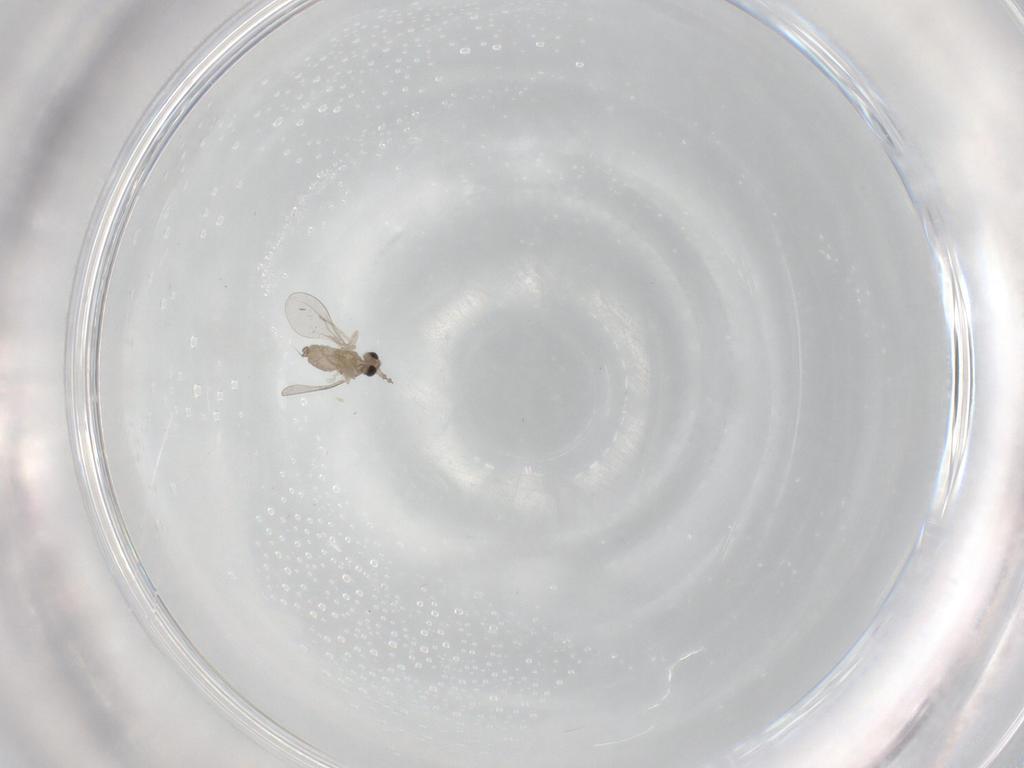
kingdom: Animalia
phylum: Arthropoda
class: Insecta
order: Diptera
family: Cecidomyiidae
